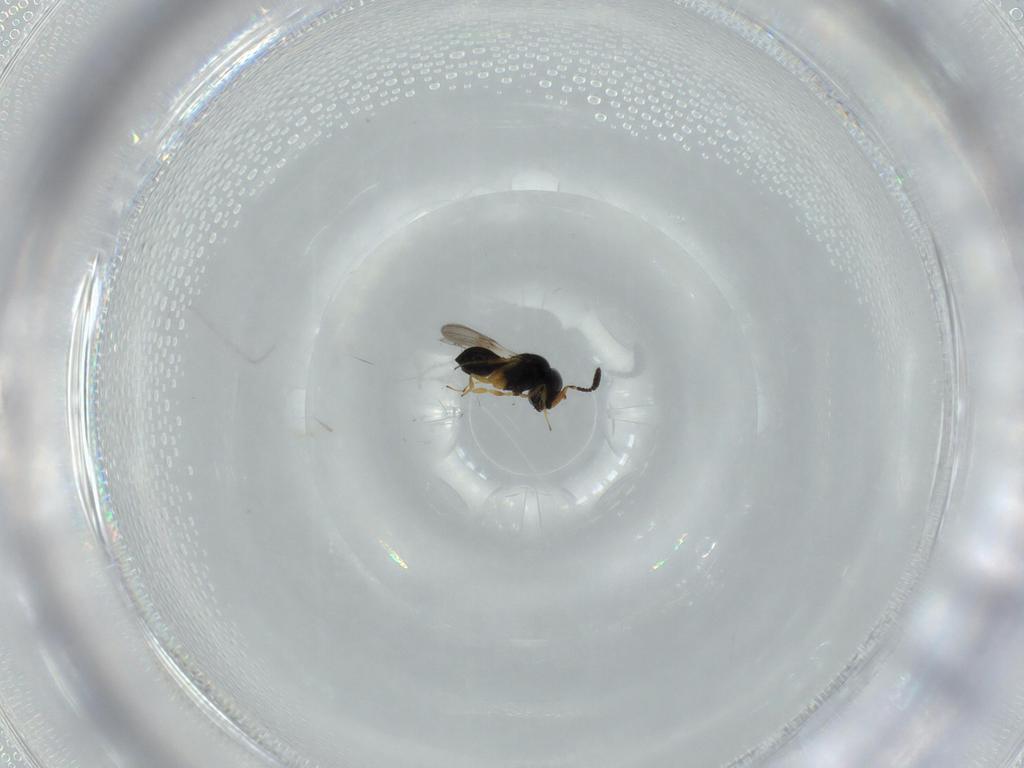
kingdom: Animalia
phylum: Arthropoda
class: Insecta
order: Hymenoptera
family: Scelionidae
